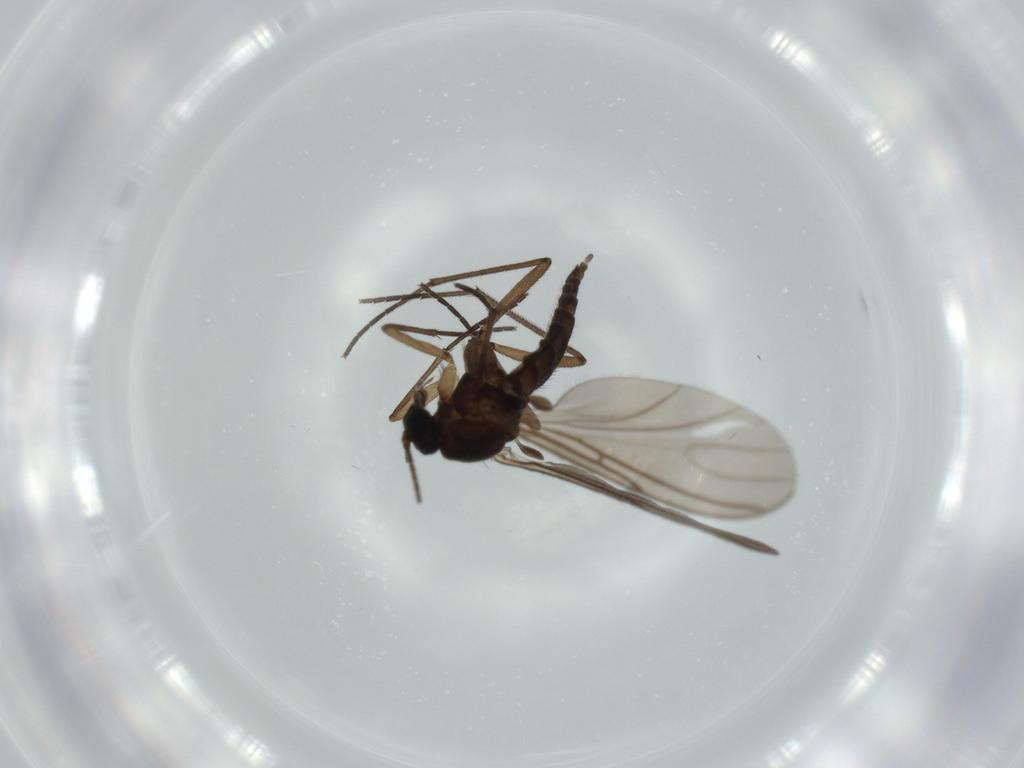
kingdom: Animalia
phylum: Arthropoda
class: Insecta
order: Diptera
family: Sciaridae
